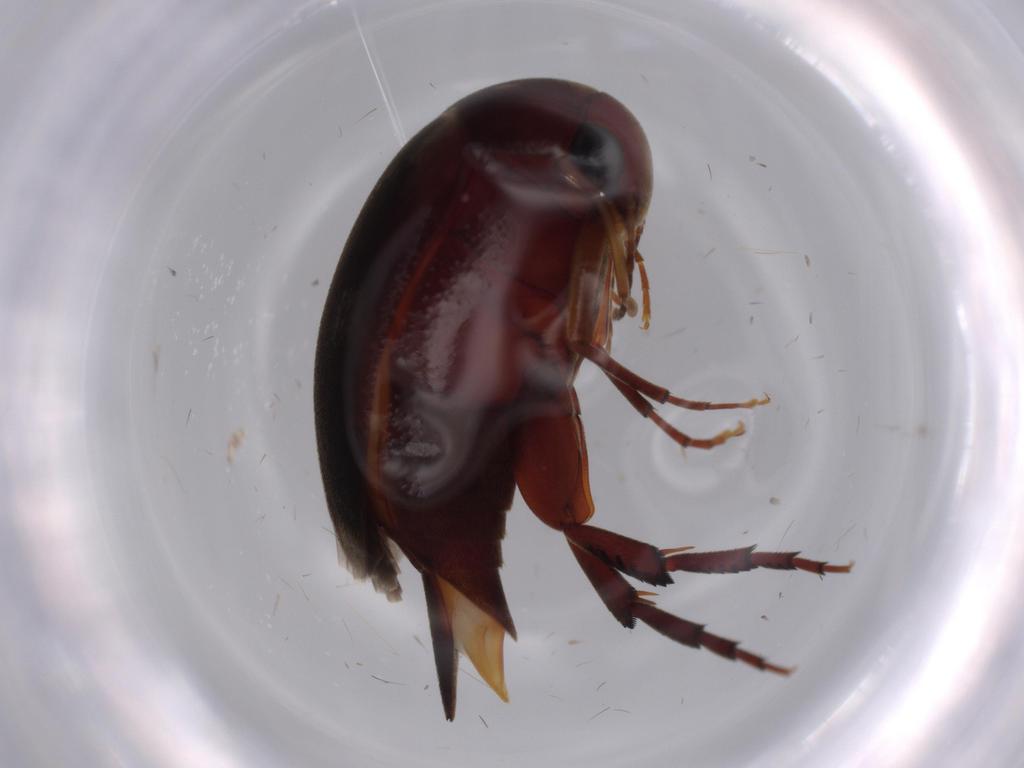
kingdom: Animalia
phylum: Arthropoda
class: Insecta
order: Coleoptera
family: Mordellidae
